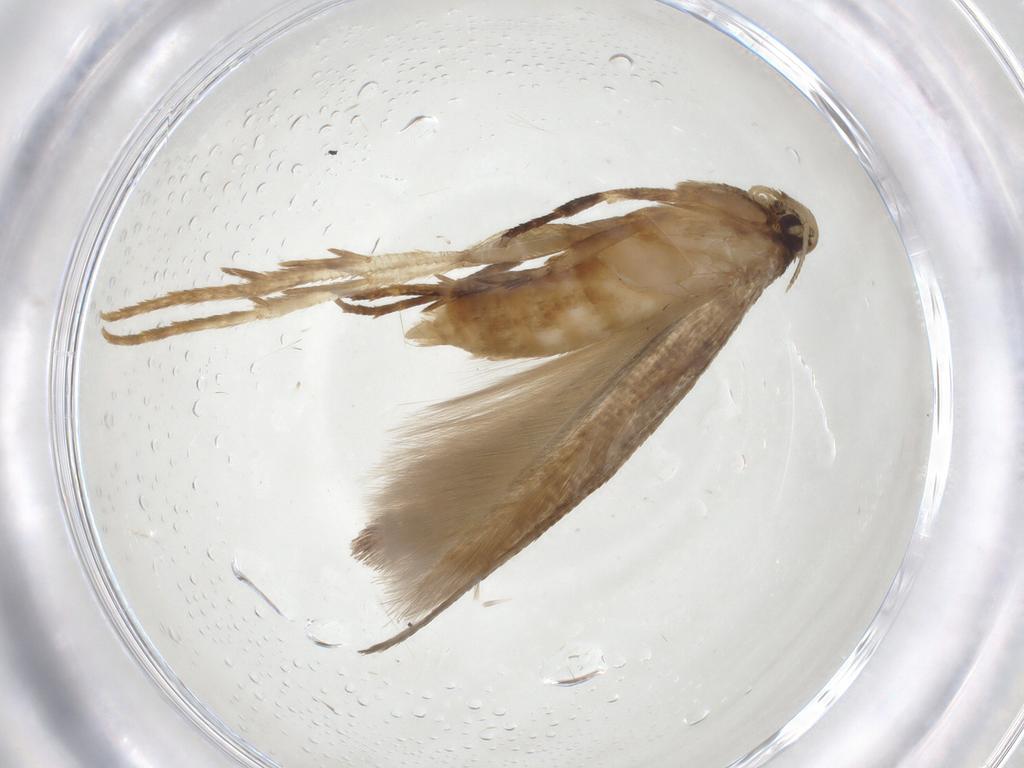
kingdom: Animalia
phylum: Arthropoda
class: Insecta
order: Lepidoptera
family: Cosmopterigidae
